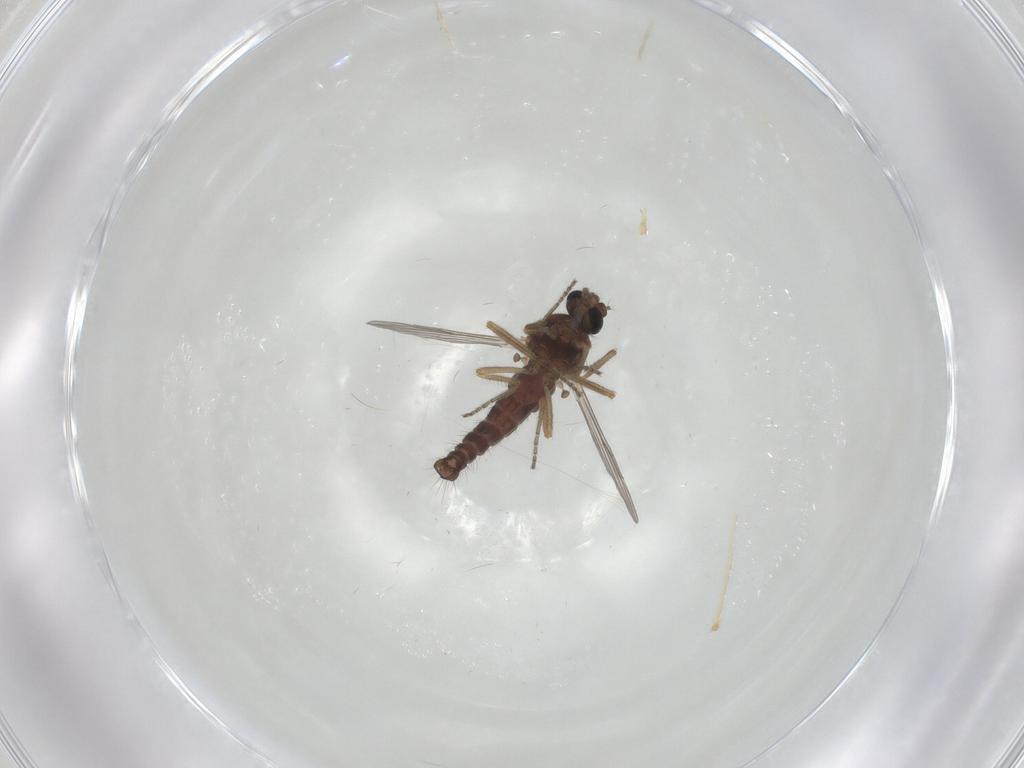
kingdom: Animalia
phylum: Arthropoda
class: Insecta
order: Diptera
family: Ceratopogonidae
